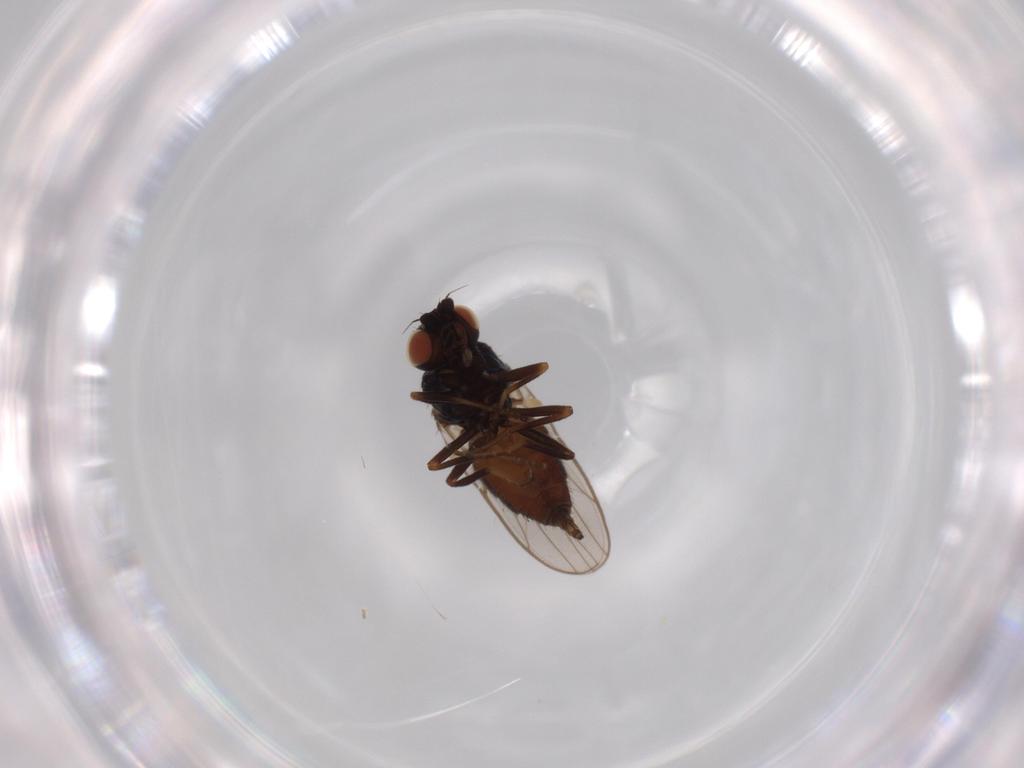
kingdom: Animalia
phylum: Arthropoda
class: Insecta
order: Diptera
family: Chloropidae
